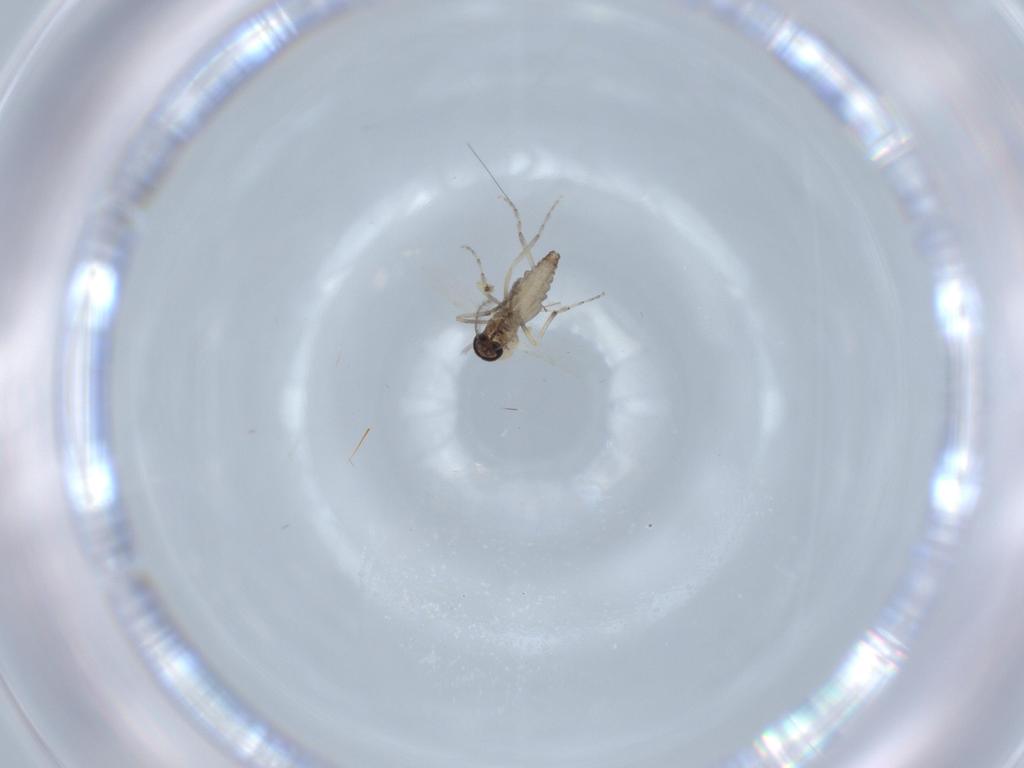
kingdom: Animalia
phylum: Arthropoda
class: Insecta
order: Diptera
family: Ceratopogonidae
